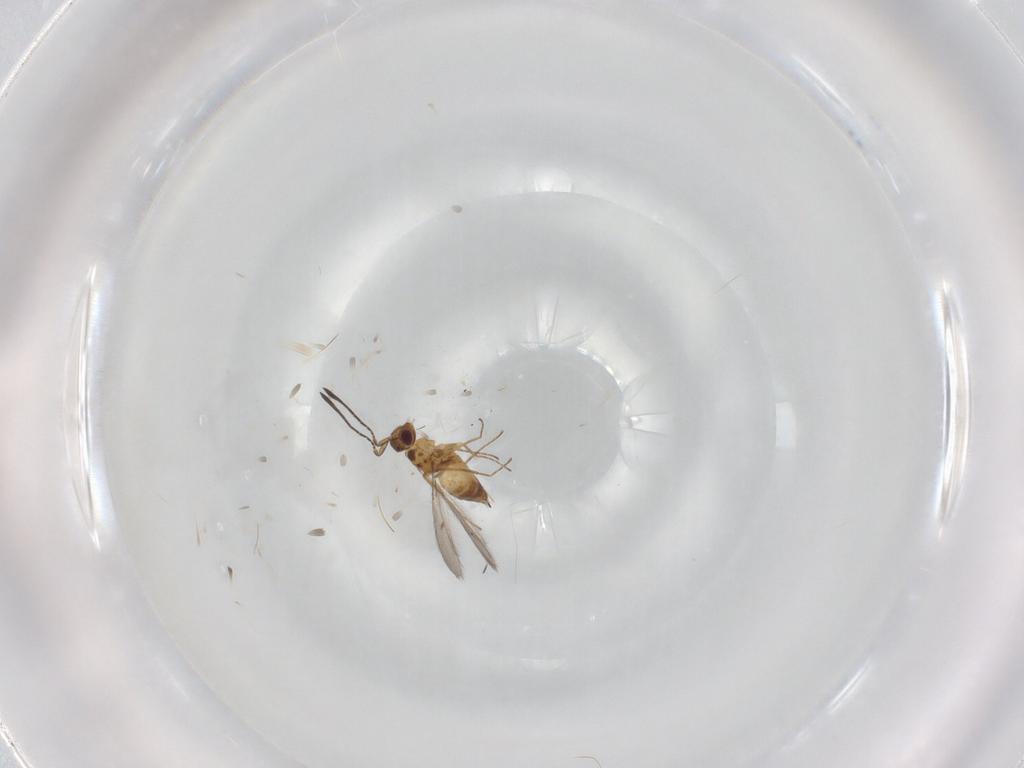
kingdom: Animalia
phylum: Arthropoda
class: Insecta
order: Hymenoptera
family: Mymaridae
